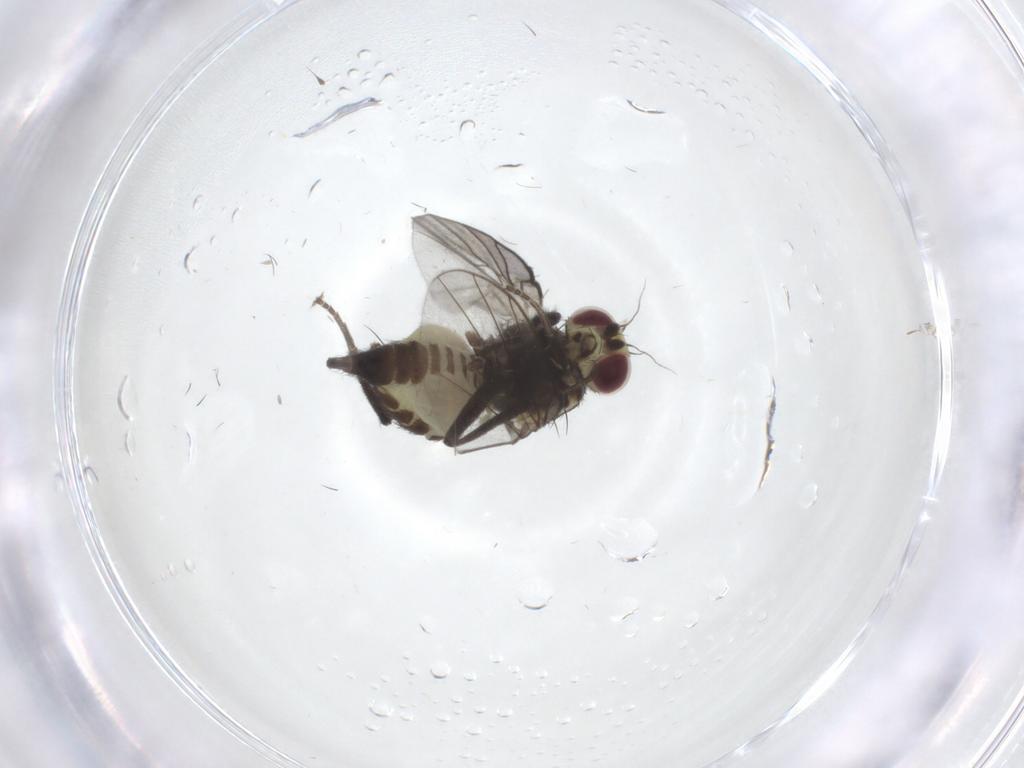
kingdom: Animalia
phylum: Arthropoda
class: Insecta
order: Diptera
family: Agromyzidae
